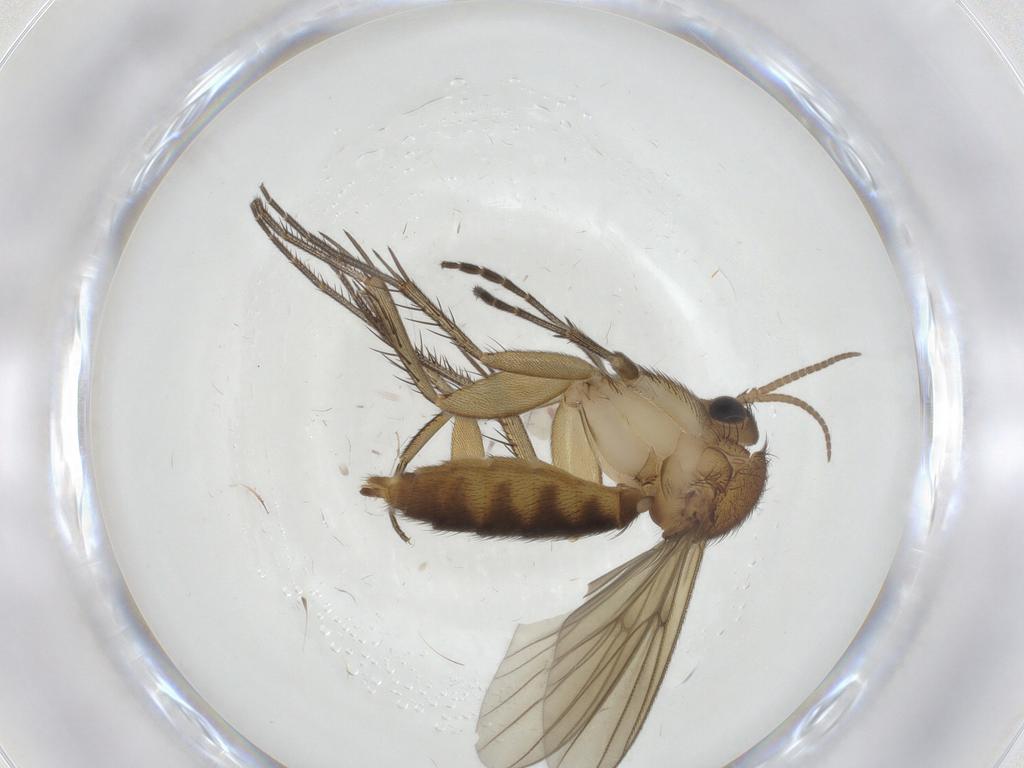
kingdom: Animalia
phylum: Arthropoda
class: Insecta
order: Diptera
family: Mycetophilidae
